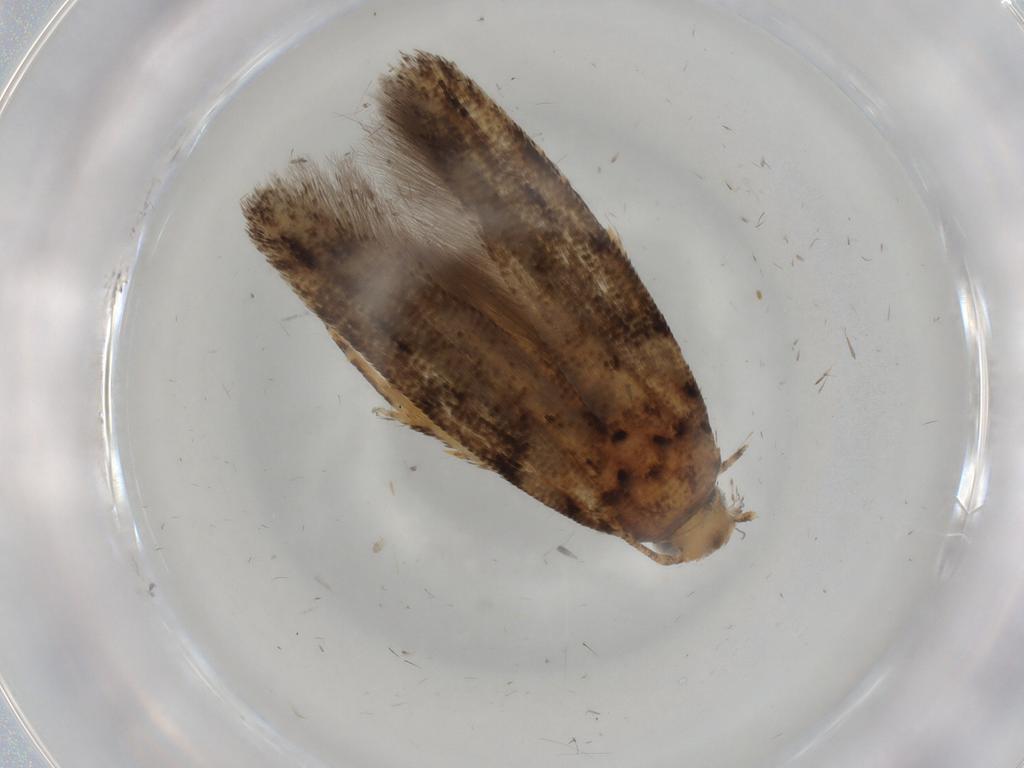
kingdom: Animalia
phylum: Arthropoda
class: Insecta
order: Lepidoptera
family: Gelechiidae
